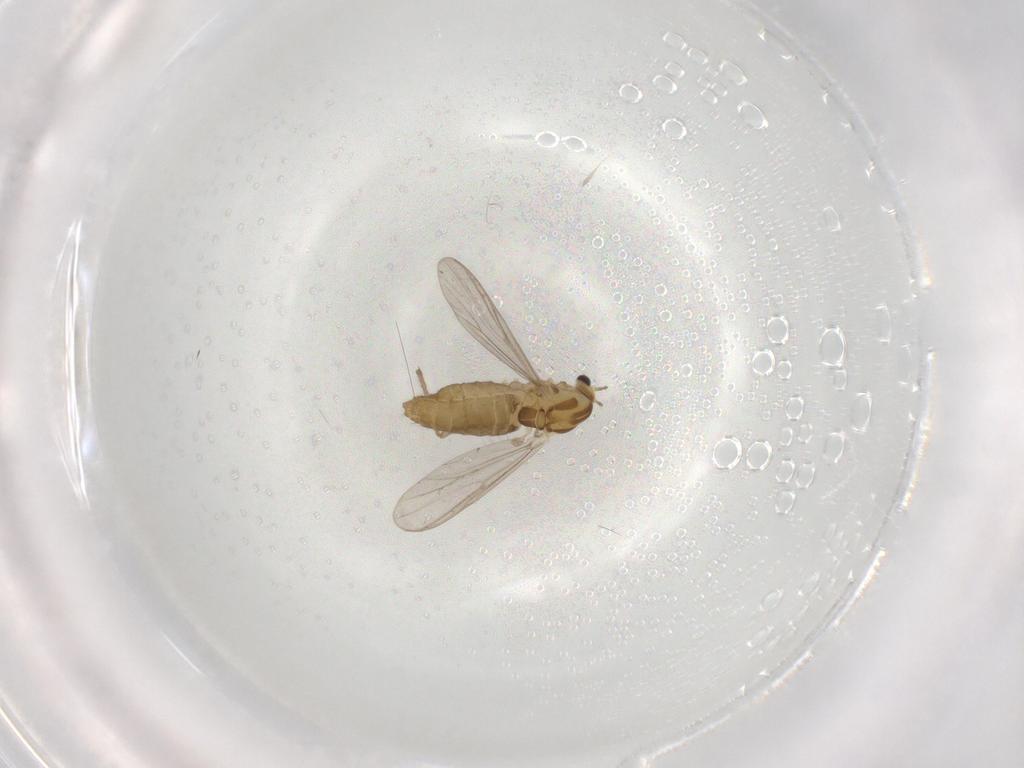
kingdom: Animalia
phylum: Arthropoda
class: Insecta
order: Diptera
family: Chironomidae
